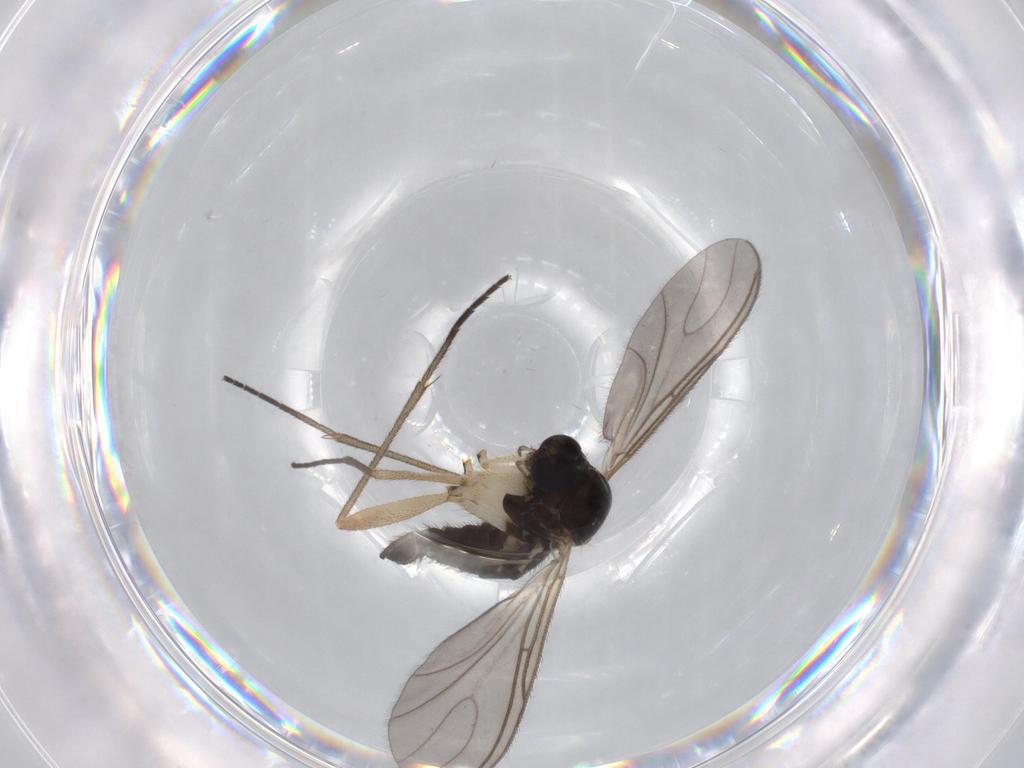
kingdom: Animalia
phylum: Arthropoda
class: Insecta
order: Diptera
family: Sciaridae
